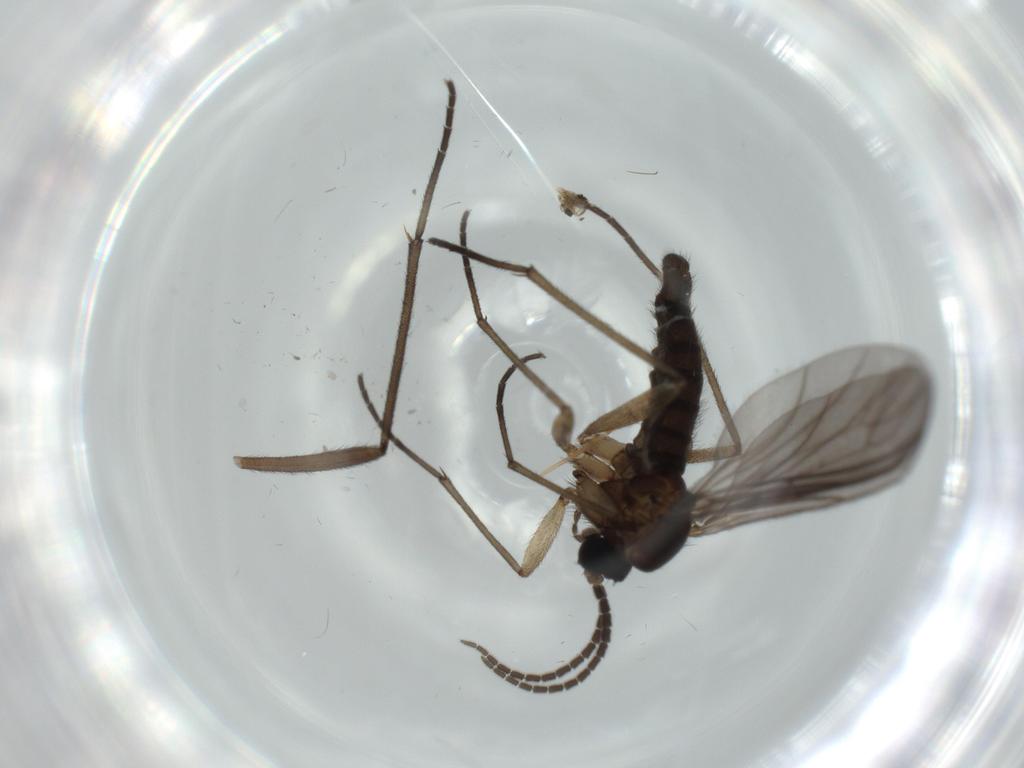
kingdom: Animalia
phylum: Arthropoda
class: Insecta
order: Diptera
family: Sciaridae
